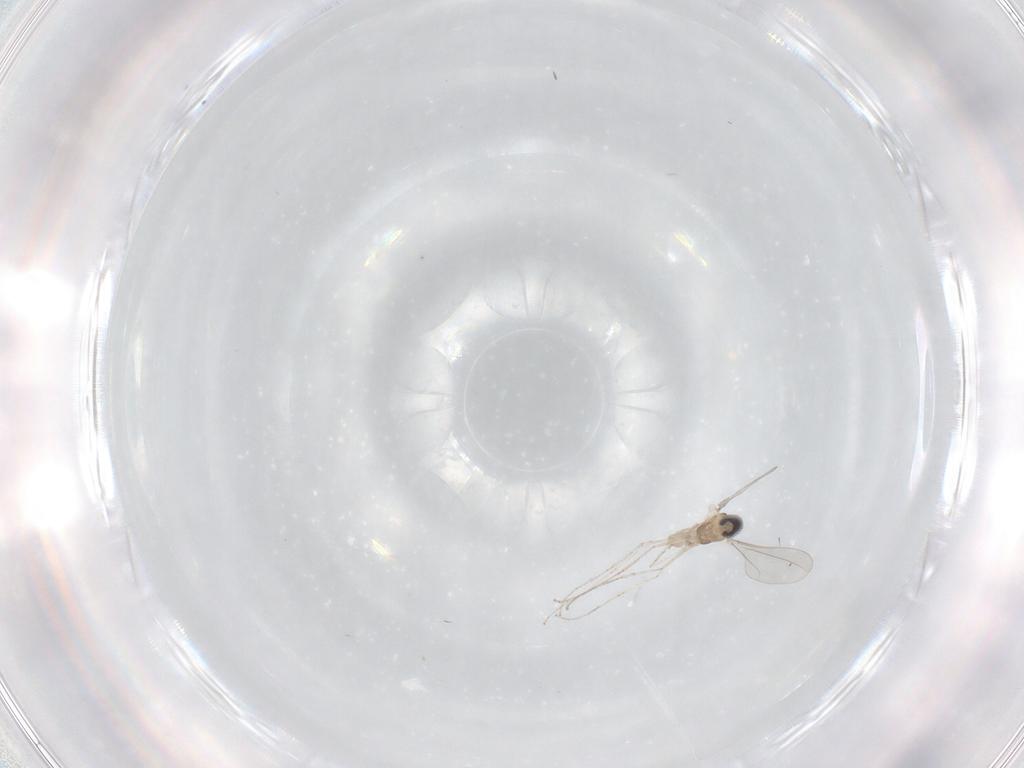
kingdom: Animalia
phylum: Arthropoda
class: Insecta
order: Diptera
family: Cecidomyiidae
